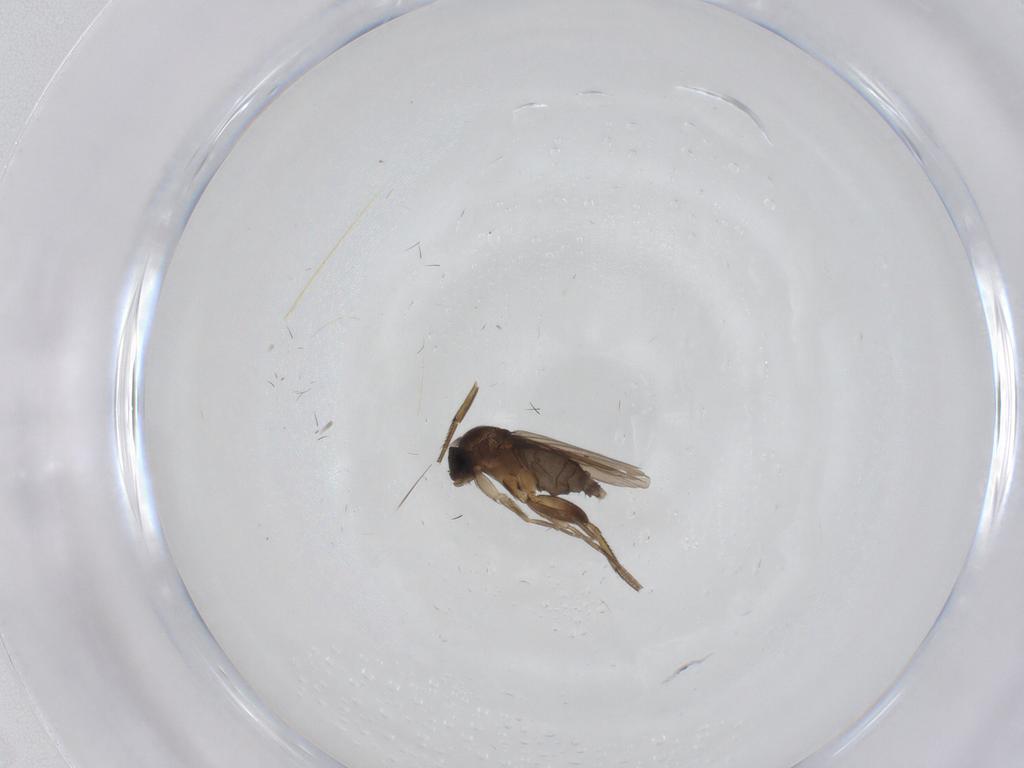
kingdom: Animalia
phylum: Arthropoda
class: Insecta
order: Diptera
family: Phoridae
